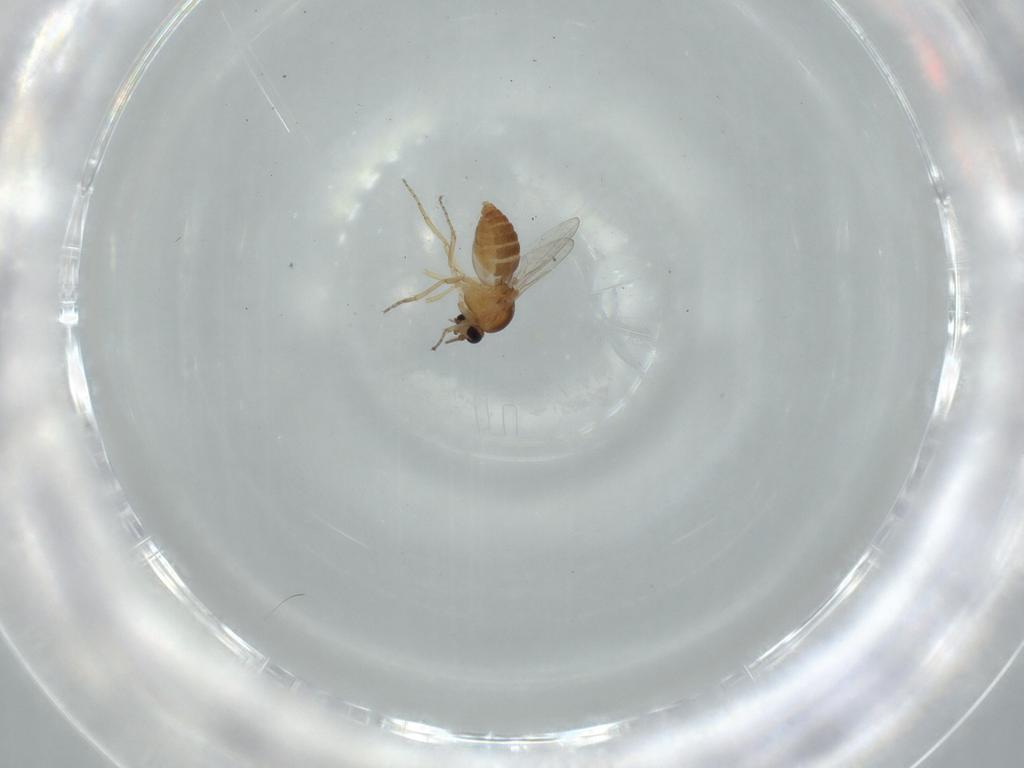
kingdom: Animalia
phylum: Arthropoda
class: Insecta
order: Diptera
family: Ceratopogonidae
